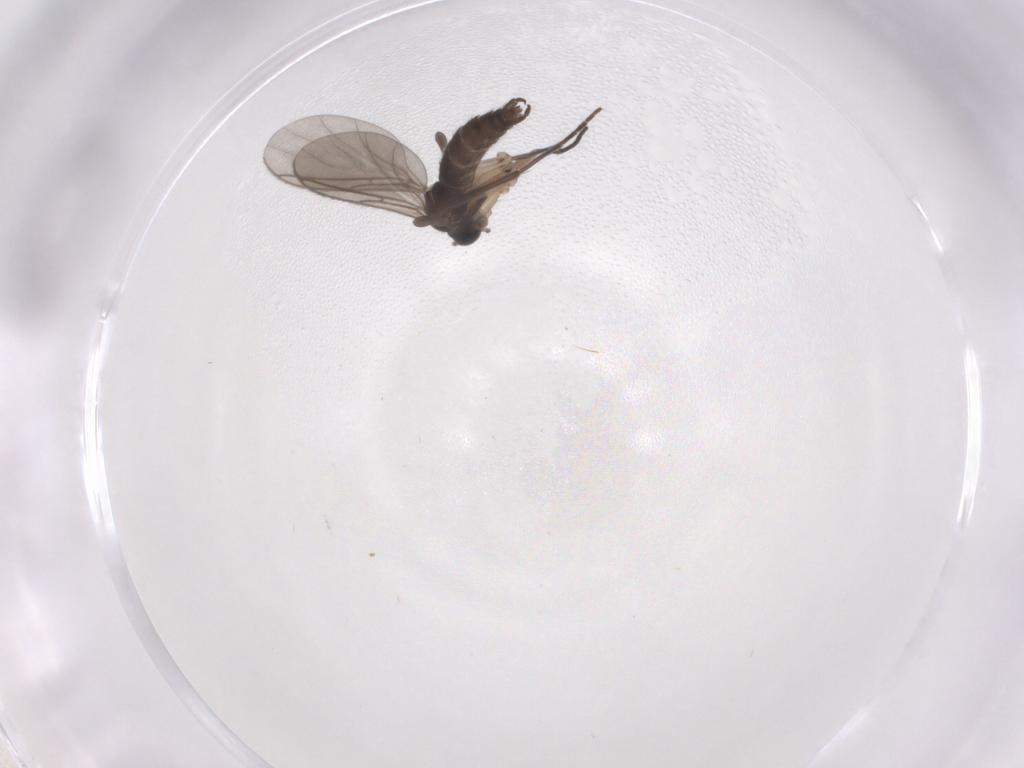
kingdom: Animalia
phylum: Arthropoda
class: Insecta
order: Diptera
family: Sciaridae
